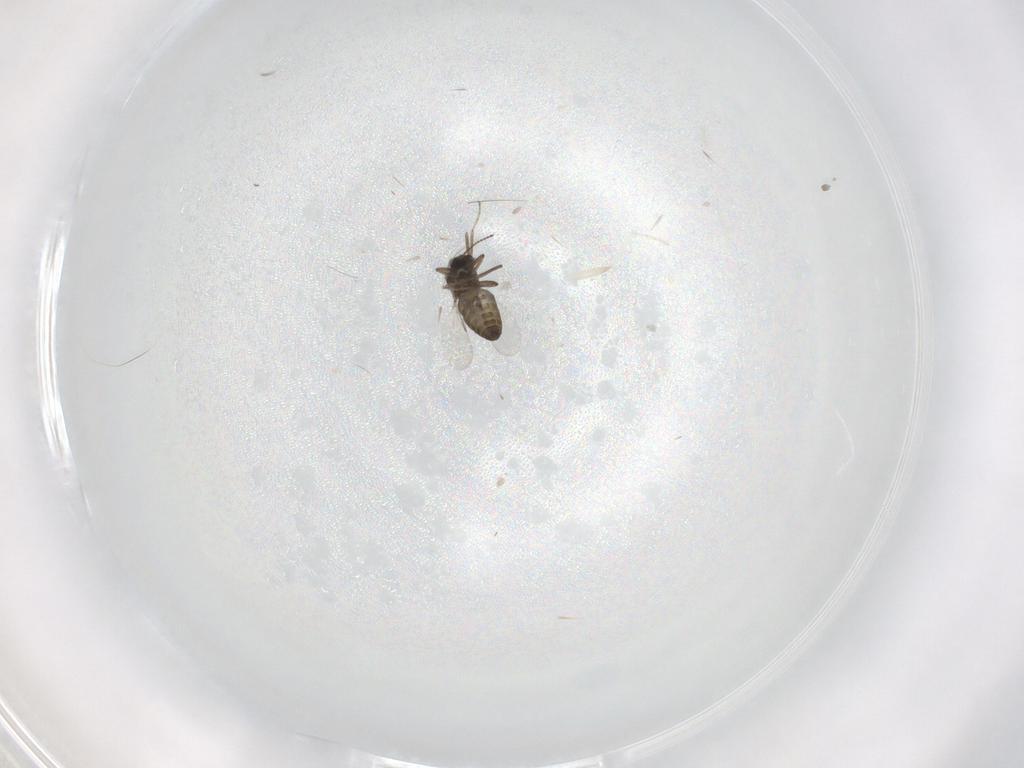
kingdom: Animalia
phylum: Arthropoda
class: Insecta
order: Diptera
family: Ceratopogonidae
